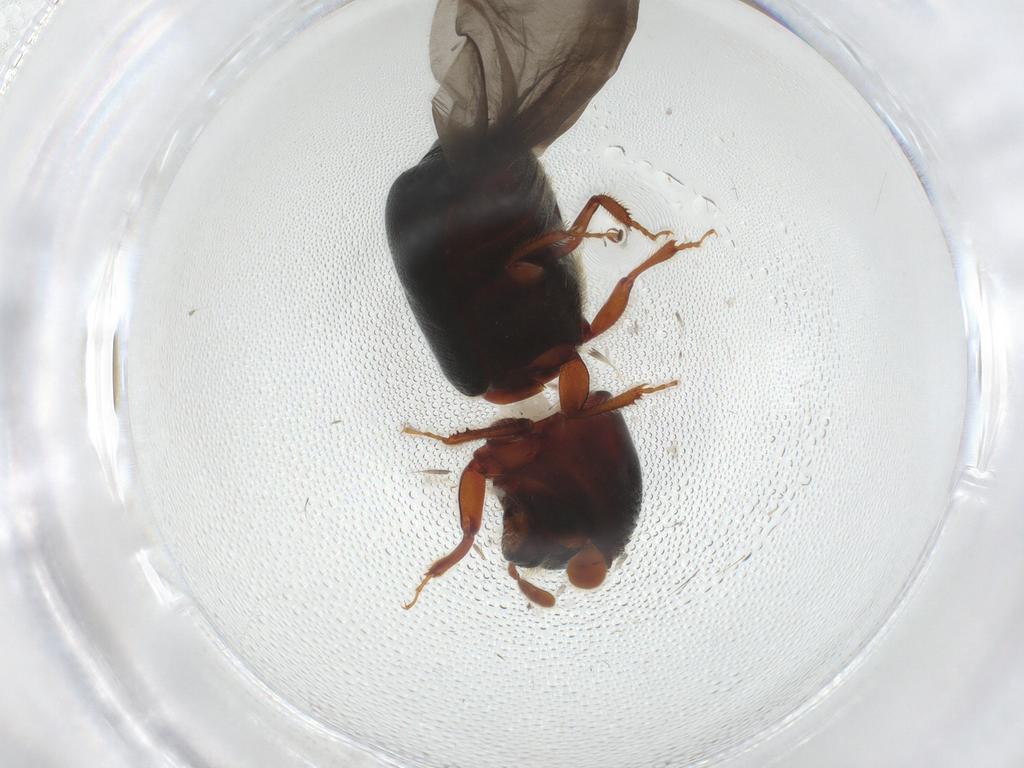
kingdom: Animalia
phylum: Arthropoda
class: Insecta
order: Coleoptera
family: Curculionidae
